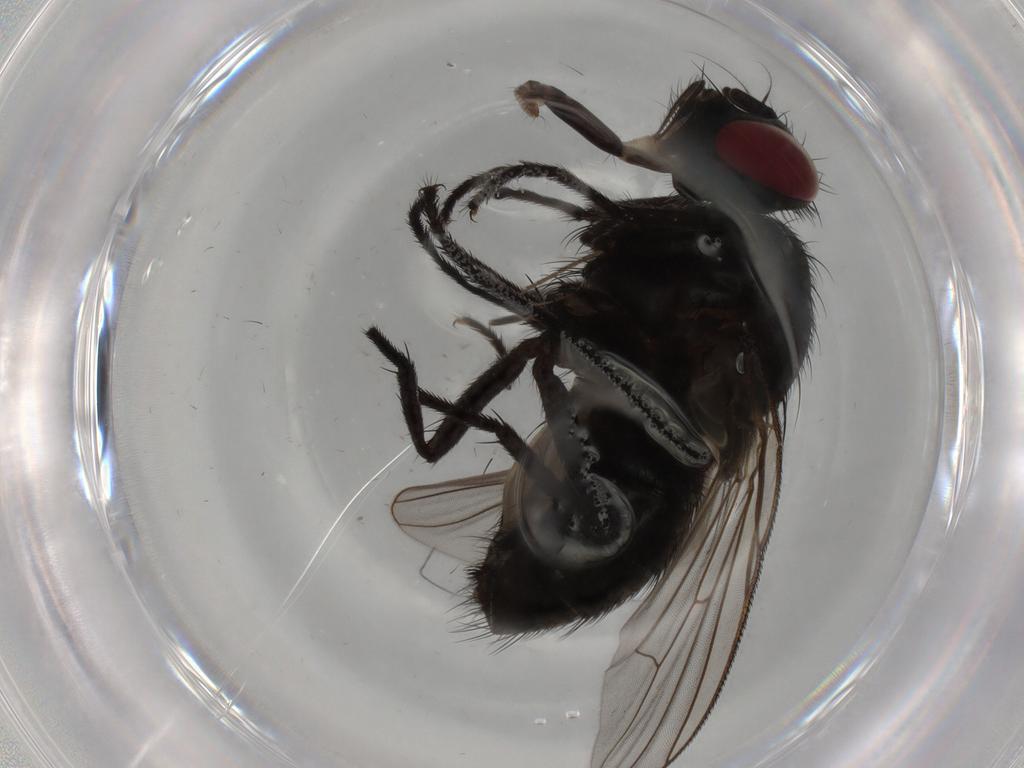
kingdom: Animalia
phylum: Arthropoda
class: Insecta
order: Diptera
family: Muscidae
